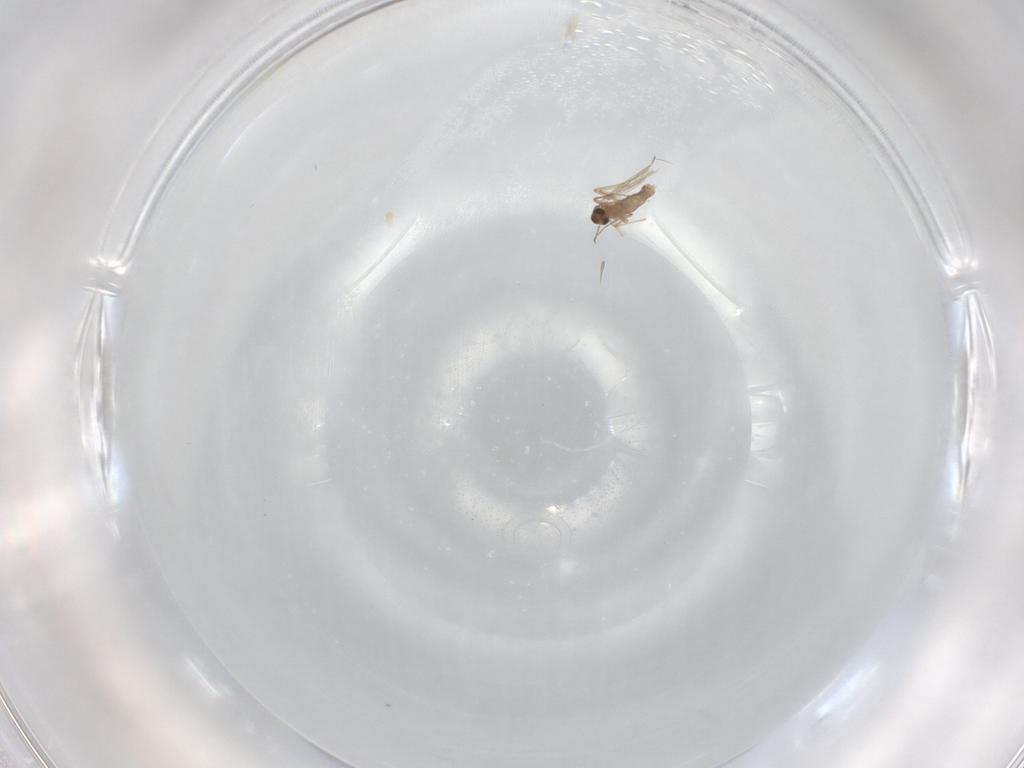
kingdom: Animalia
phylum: Arthropoda
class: Insecta
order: Diptera
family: Chironomidae
